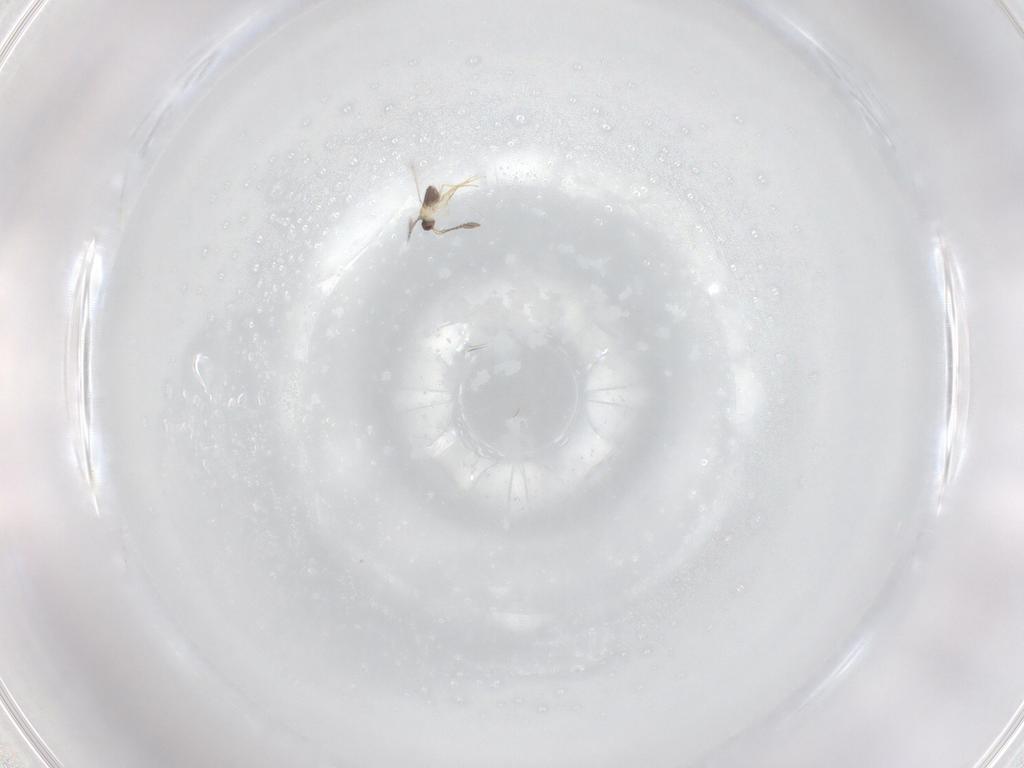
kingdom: Animalia
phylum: Arthropoda
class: Insecta
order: Hymenoptera
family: Mymaridae
